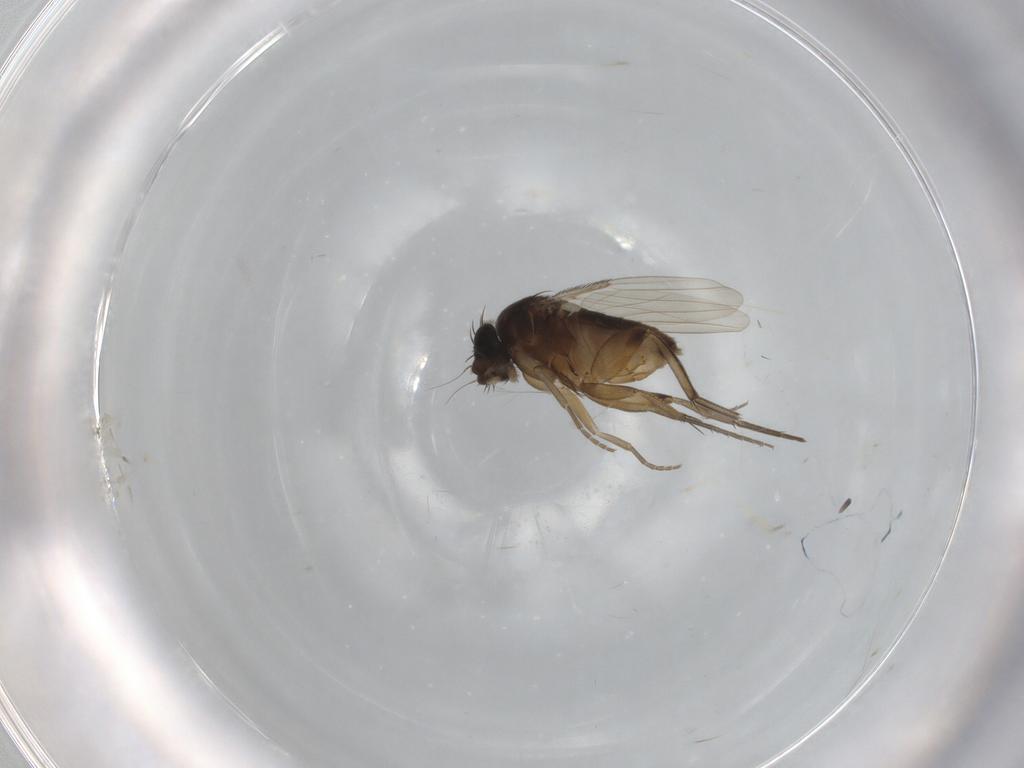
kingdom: Animalia
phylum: Arthropoda
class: Insecta
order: Diptera
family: Phoridae
